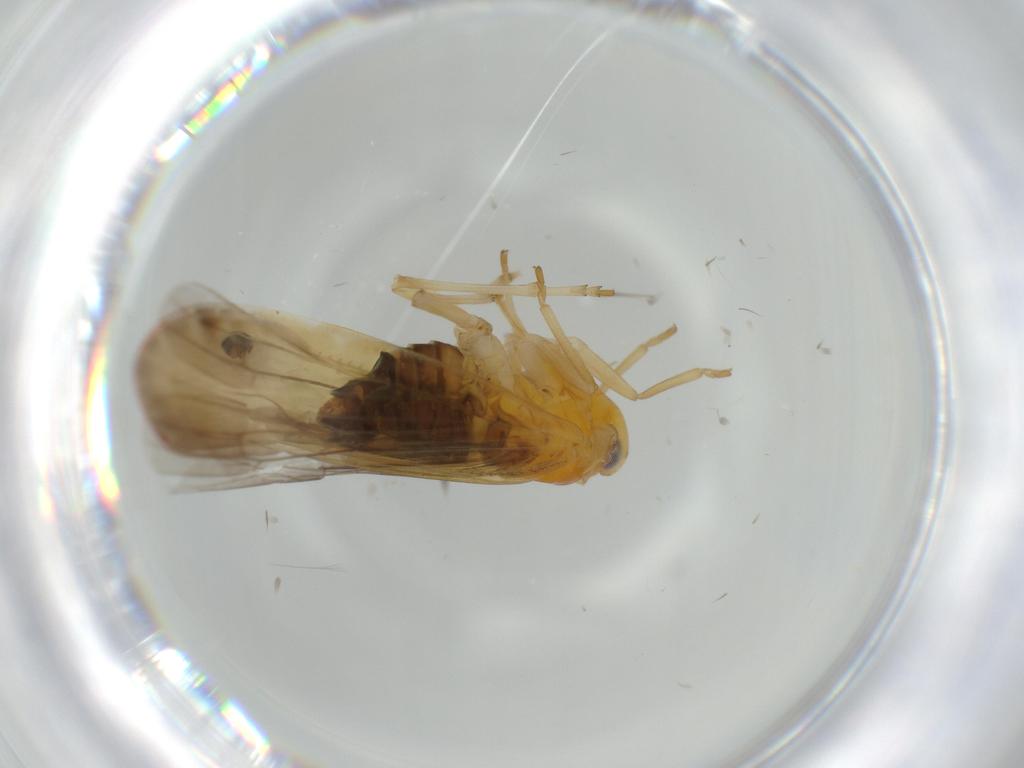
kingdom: Animalia
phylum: Arthropoda
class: Insecta
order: Hemiptera
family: Derbidae
